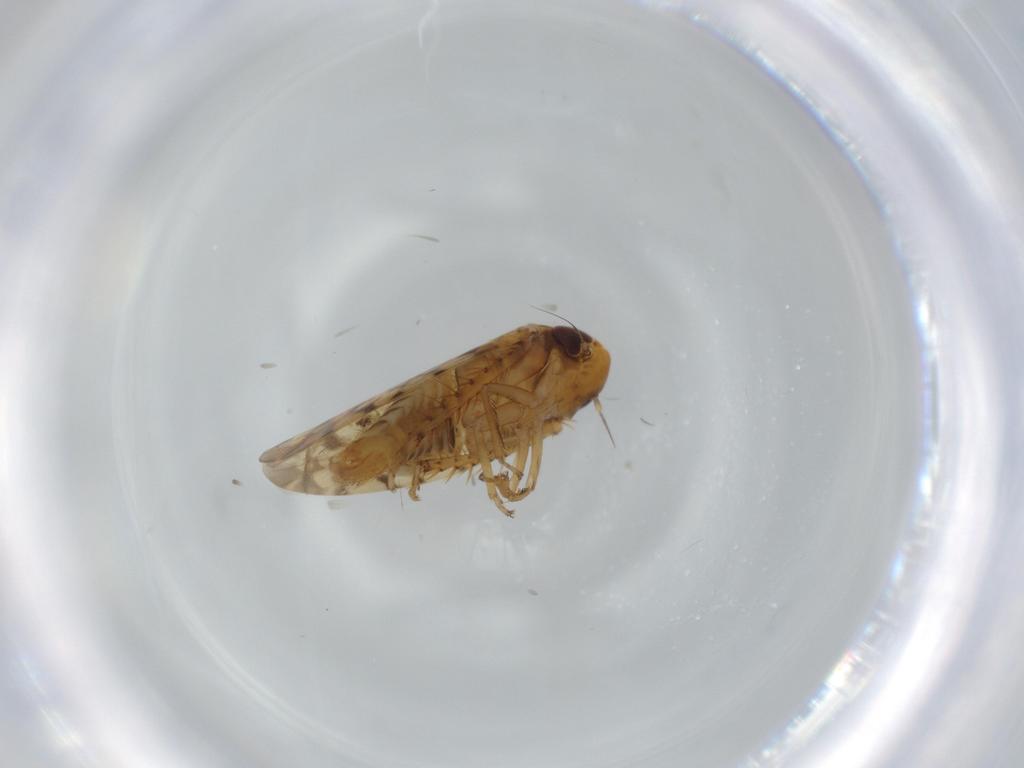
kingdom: Animalia
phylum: Arthropoda
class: Insecta
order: Hemiptera
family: Cicadellidae
